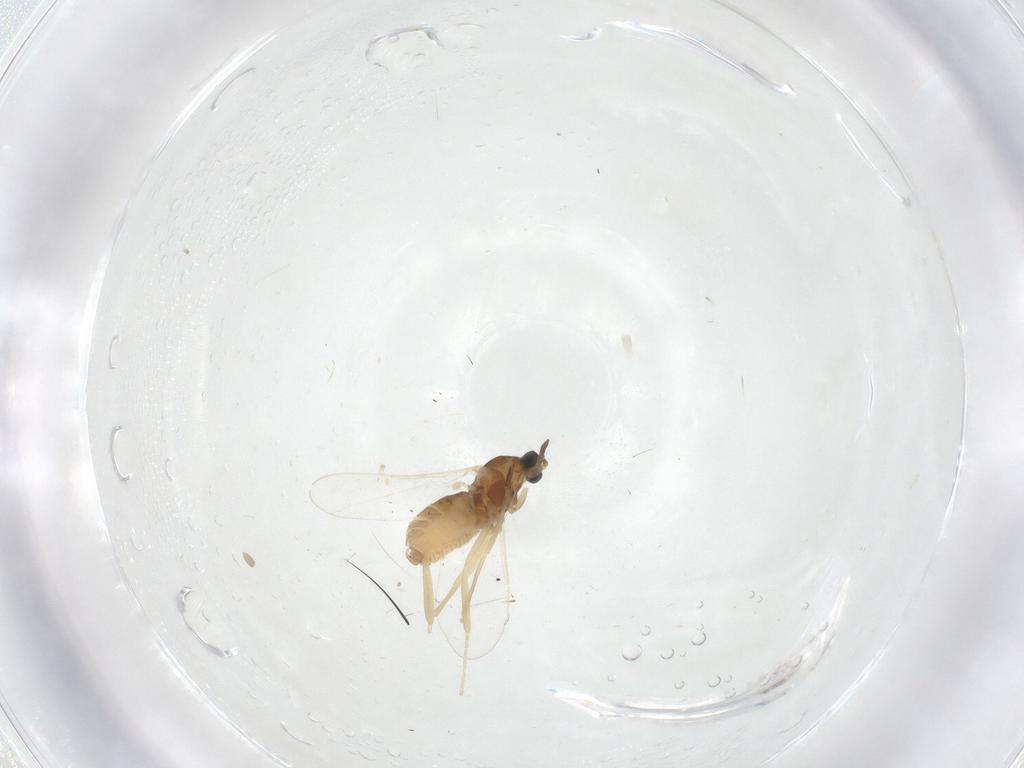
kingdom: Animalia
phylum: Arthropoda
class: Insecta
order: Diptera
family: Cecidomyiidae
